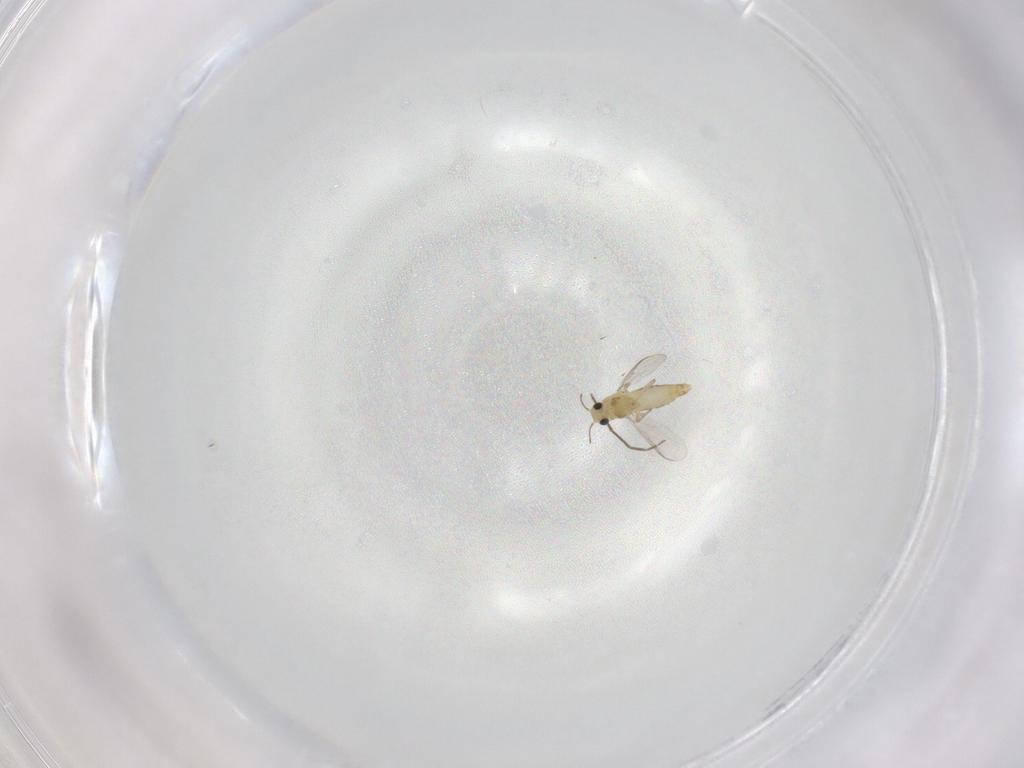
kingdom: Animalia
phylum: Arthropoda
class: Insecta
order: Diptera
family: Chironomidae
